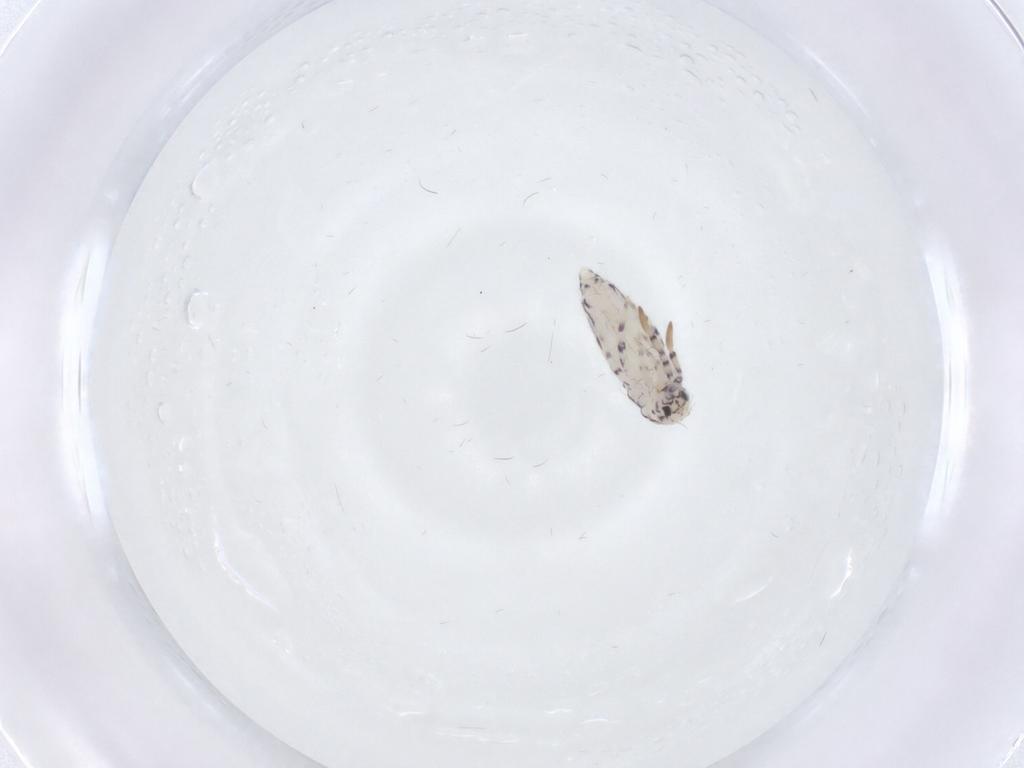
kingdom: Animalia
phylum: Arthropoda
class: Collembola
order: Entomobryomorpha
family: Entomobryidae
